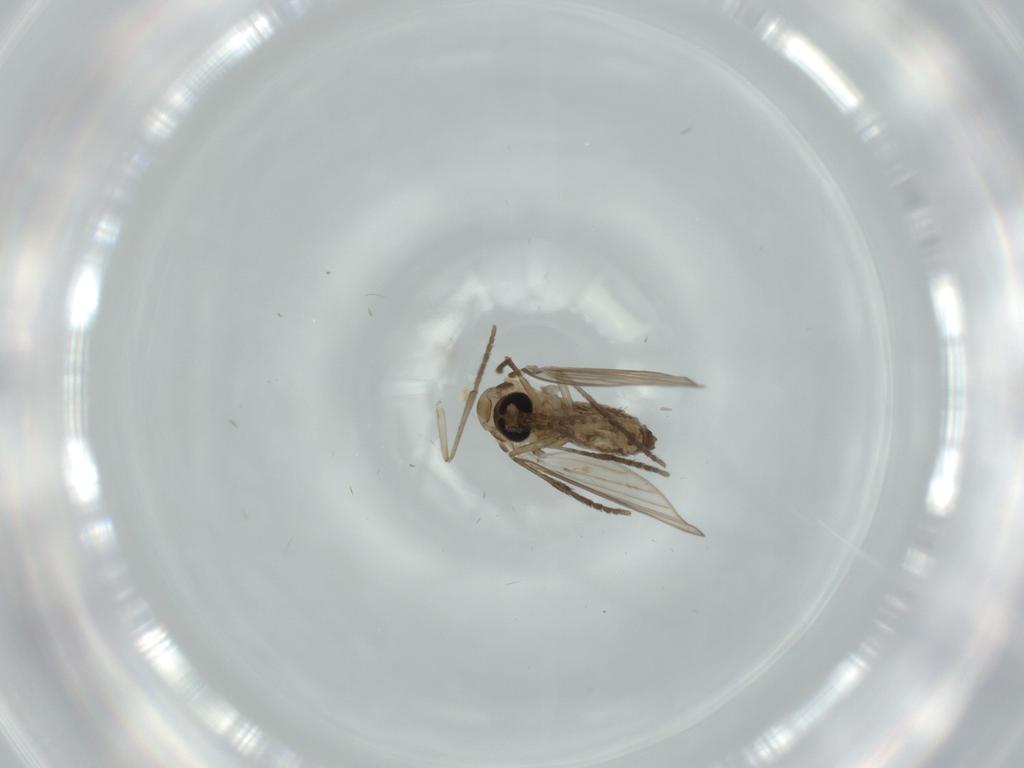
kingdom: Animalia
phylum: Arthropoda
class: Insecta
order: Diptera
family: Psychodidae
